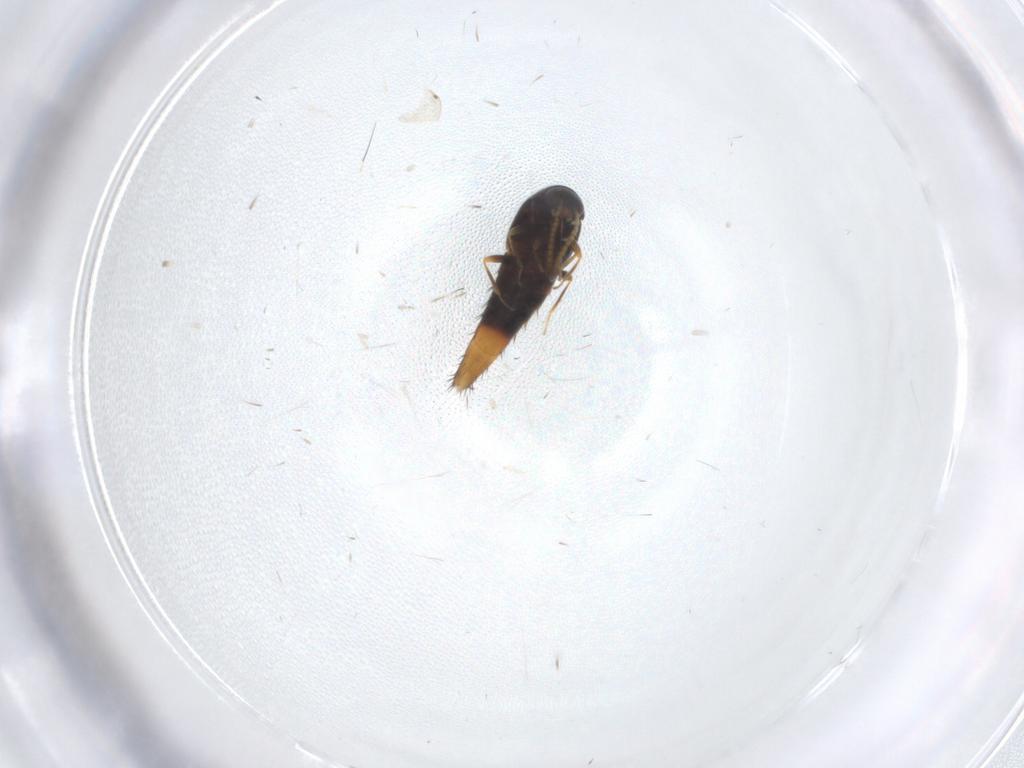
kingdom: Animalia
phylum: Arthropoda
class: Insecta
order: Coleoptera
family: Staphylinidae
